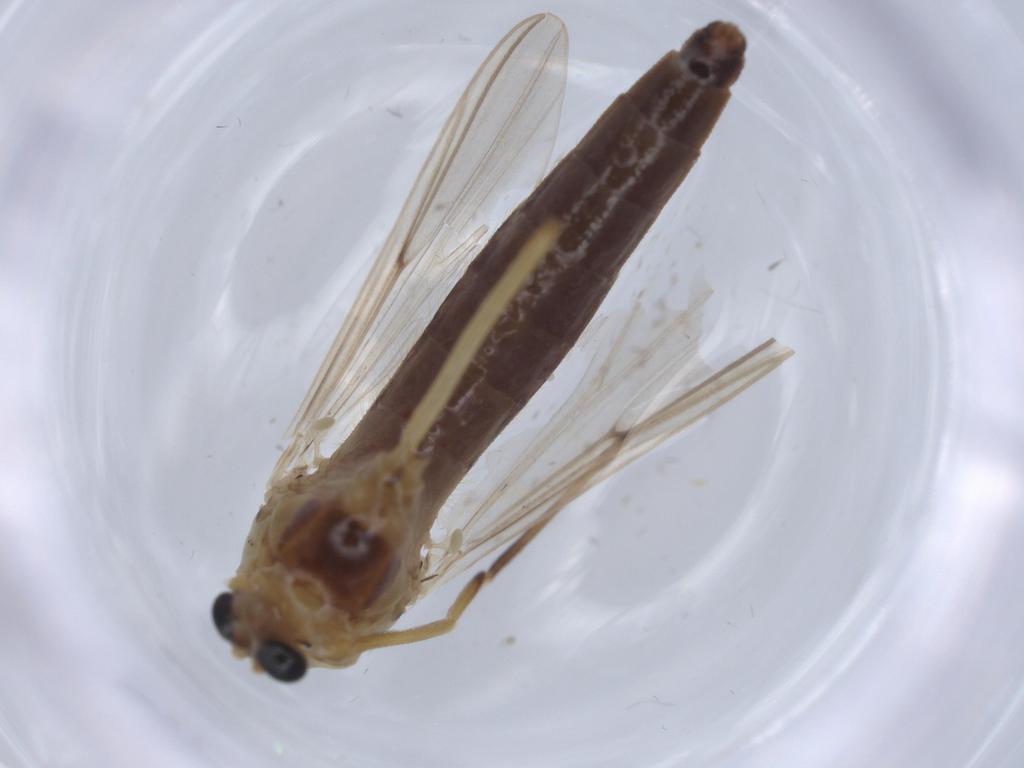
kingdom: Animalia
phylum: Arthropoda
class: Insecta
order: Diptera
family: Chironomidae
